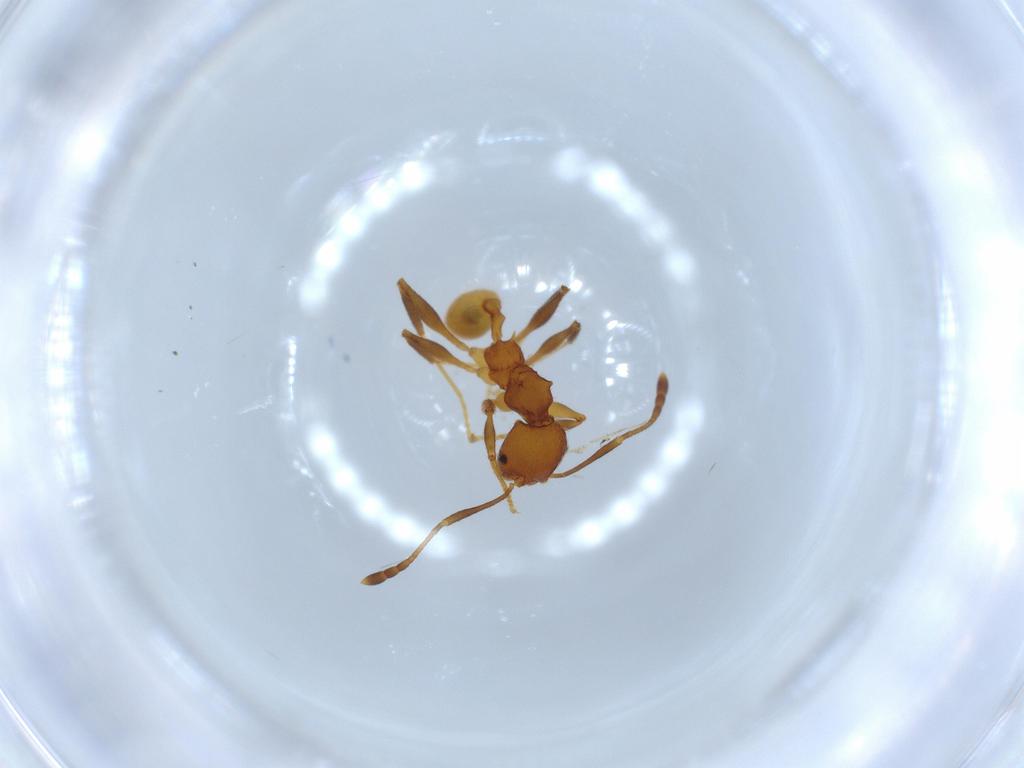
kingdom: Animalia
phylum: Arthropoda
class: Insecta
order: Hymenoptera
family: Formicidae
